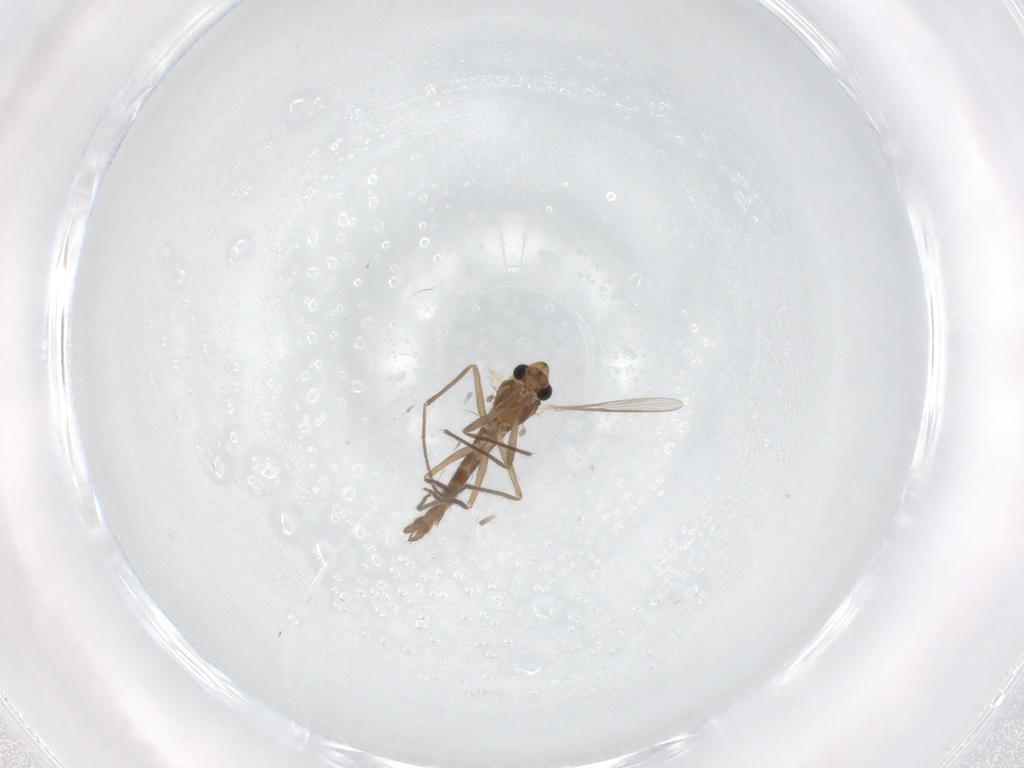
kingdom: Animalia
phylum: Arthropoda
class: Insecta
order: Diptera
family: Chironomidae
